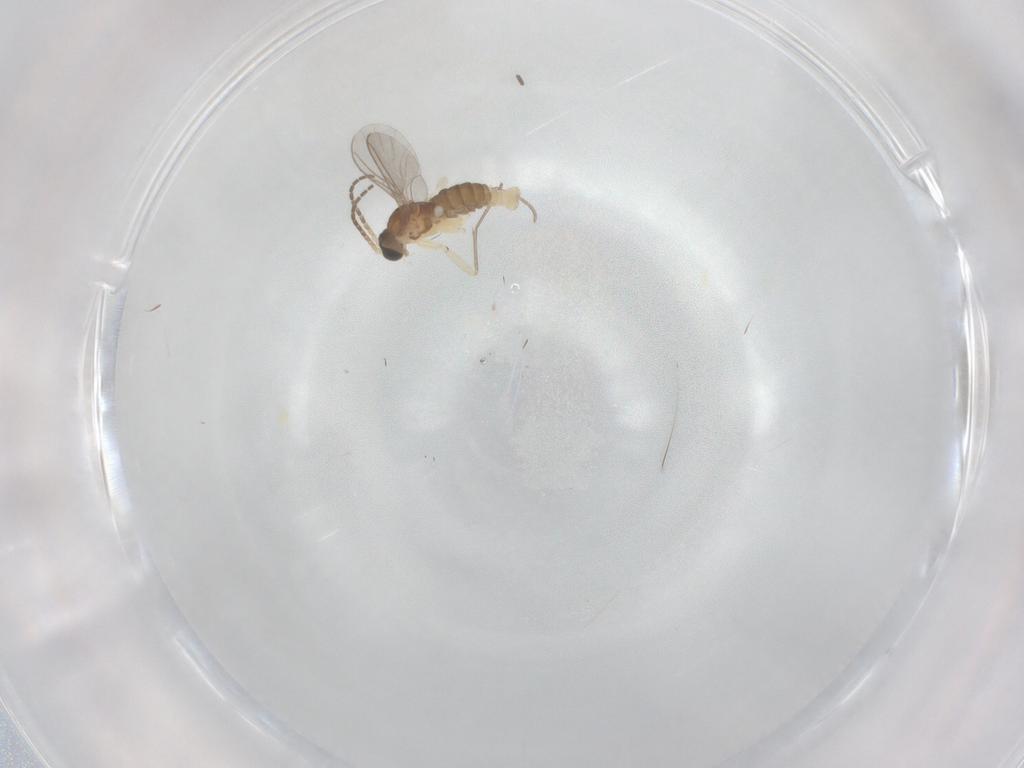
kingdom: Animalia
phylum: Arthropoda
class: Insecta
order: Diptera
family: Sciaridae
